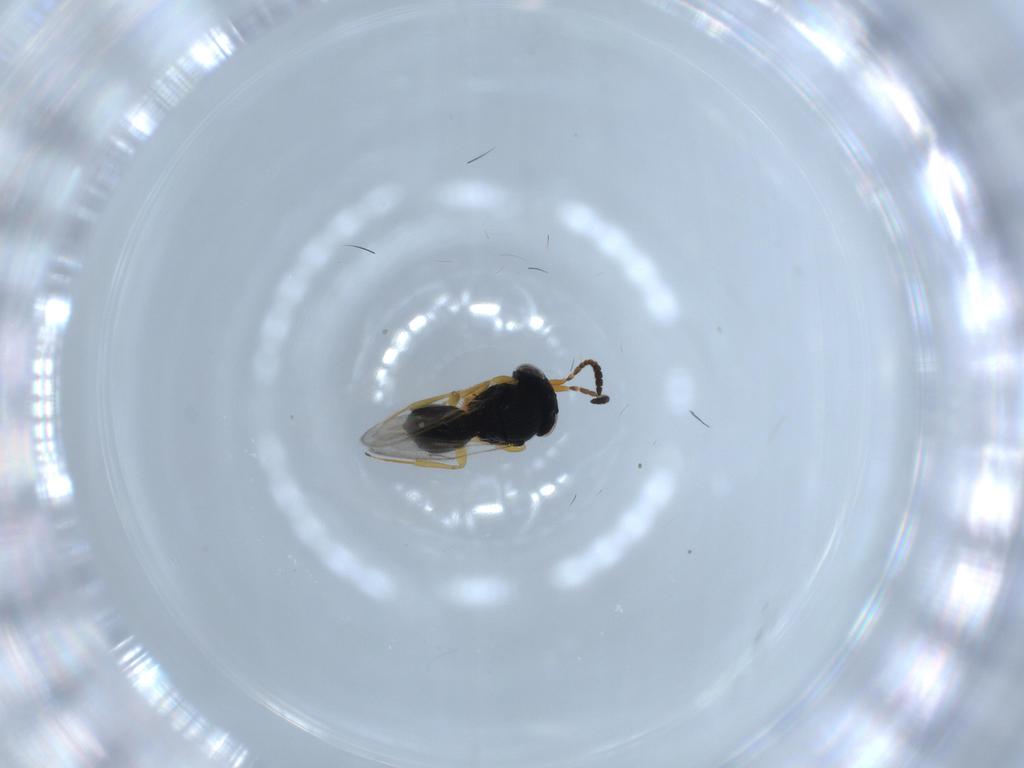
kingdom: Animalia
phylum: Arthropoda
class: Insecta
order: Hymenoptera
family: Scelionidae
